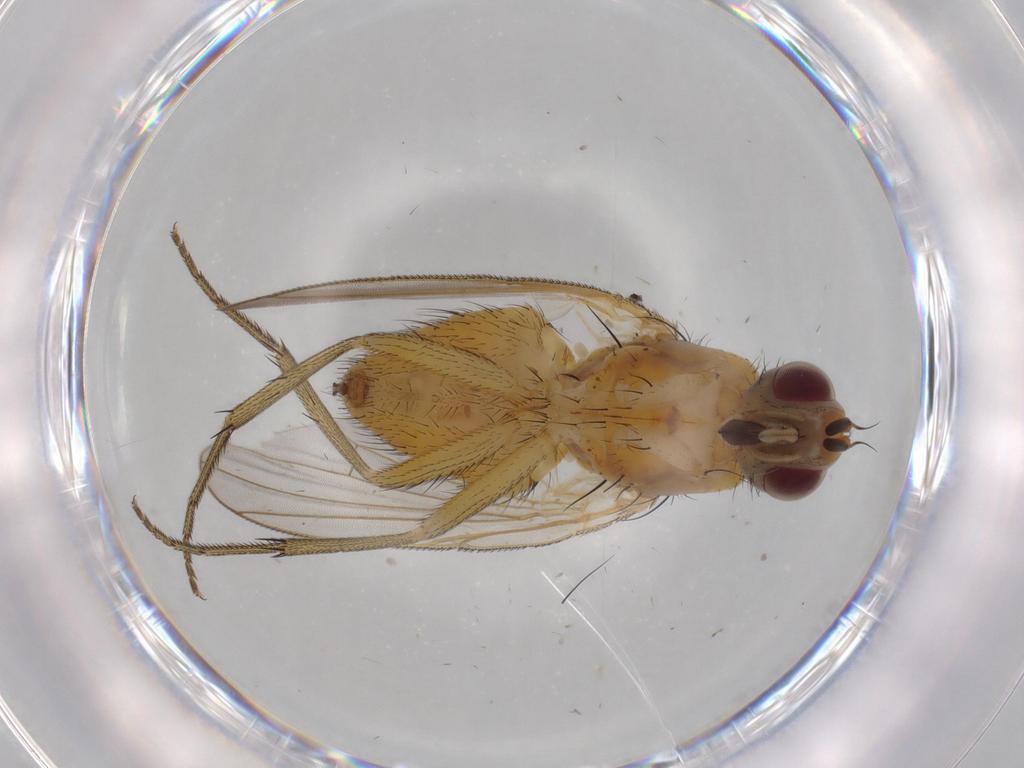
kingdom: Animalia
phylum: Arthropoda
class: Insecta
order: Diptera
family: Muscidae
